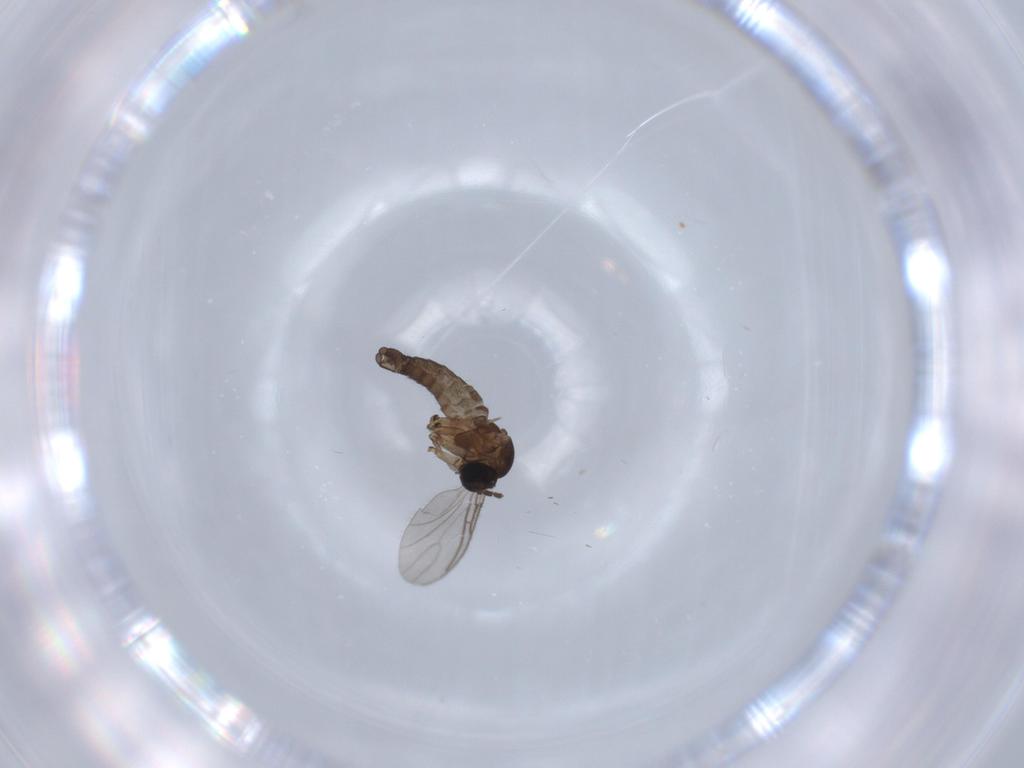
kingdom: Animalia
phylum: Arthropoda
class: Insecta
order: Diptera
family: Sciaridae
